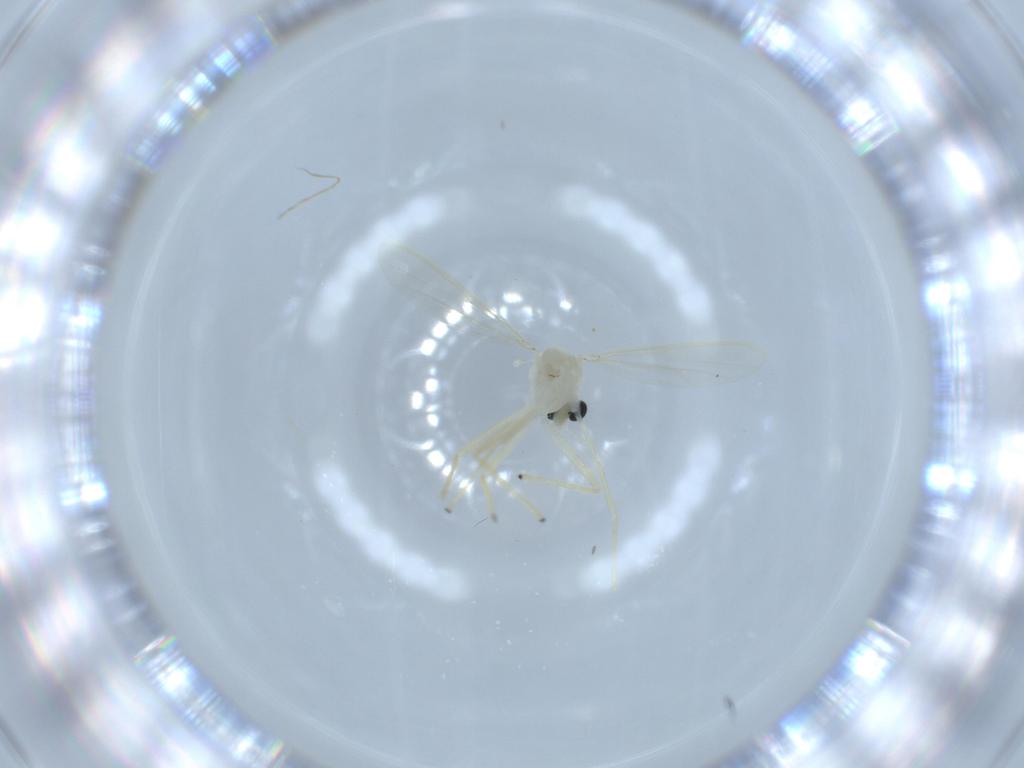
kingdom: Animalia
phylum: Arthropoda
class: Insecta
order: Diptera
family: Chironomidae
